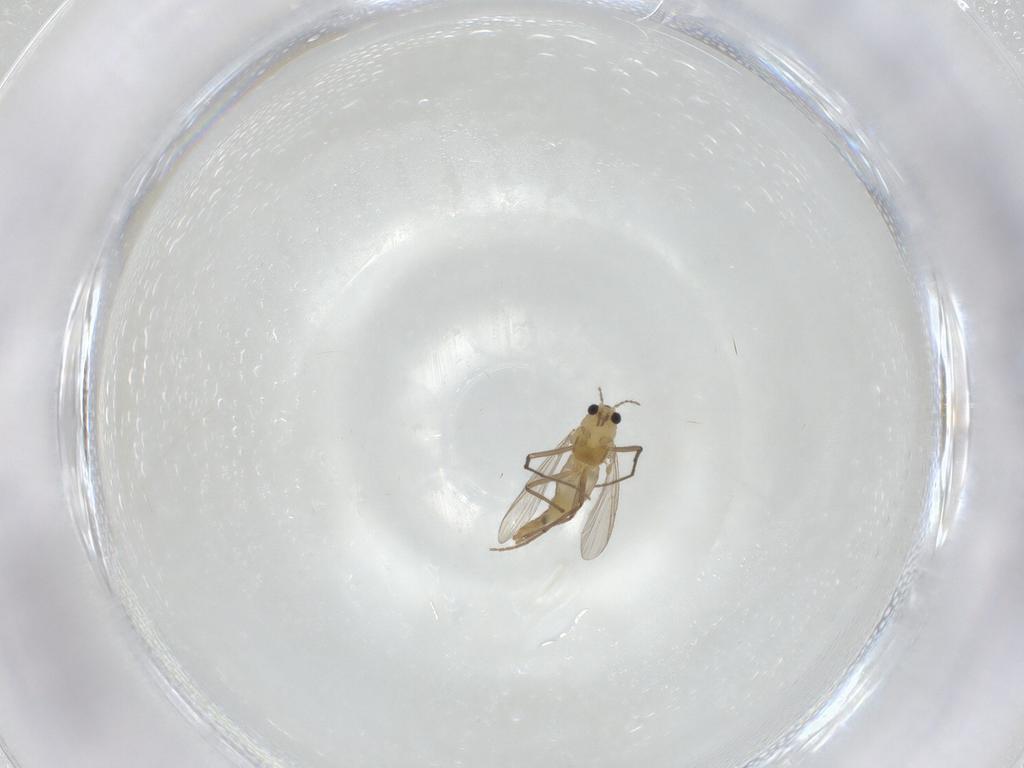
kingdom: Animalia
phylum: Arthropoda
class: Insecta
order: Diptera
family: Chironomidae
